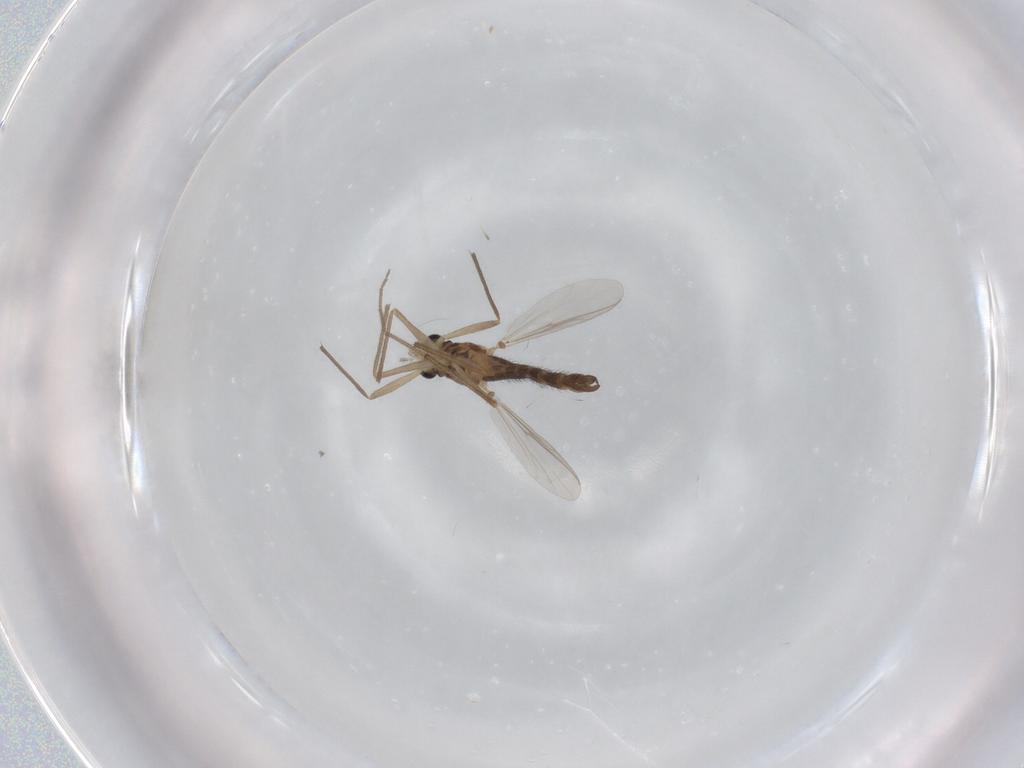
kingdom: Animalia
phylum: Arthropoda
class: Insecta
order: Diptera
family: Chironomidae
